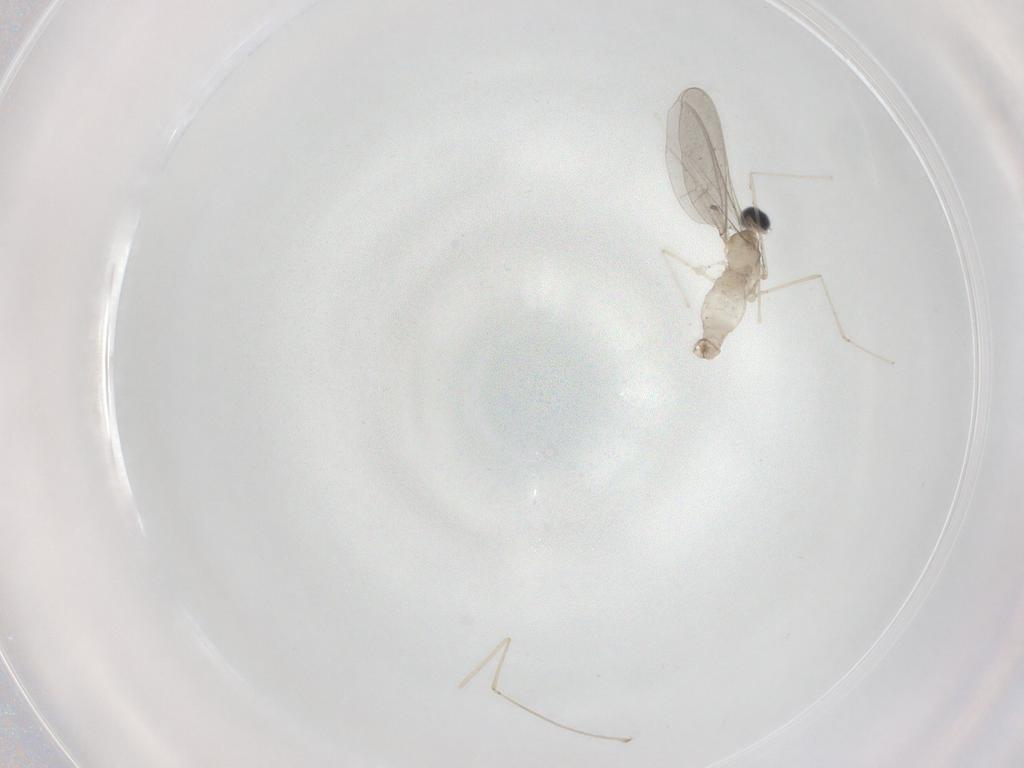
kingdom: Animalia
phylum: Arthropoda
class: Insecta
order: Diptera
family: Cecidomyiidae
